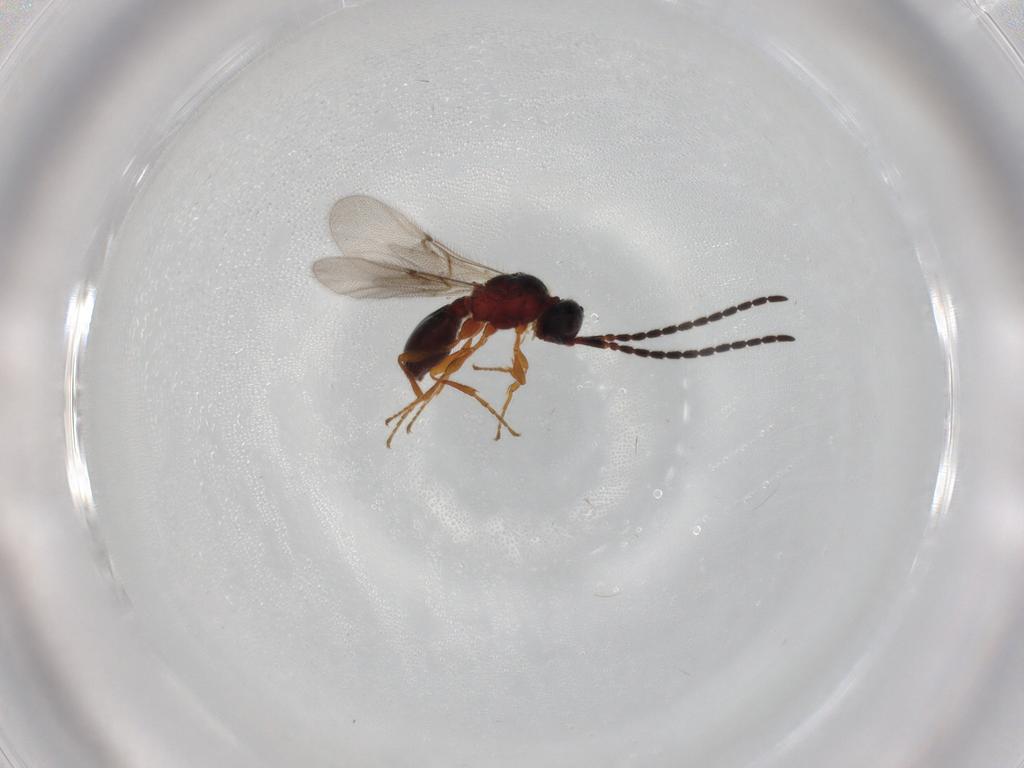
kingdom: Animalia
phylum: Arthropoda
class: Insecta
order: Hymenoptera
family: Diapriidae
